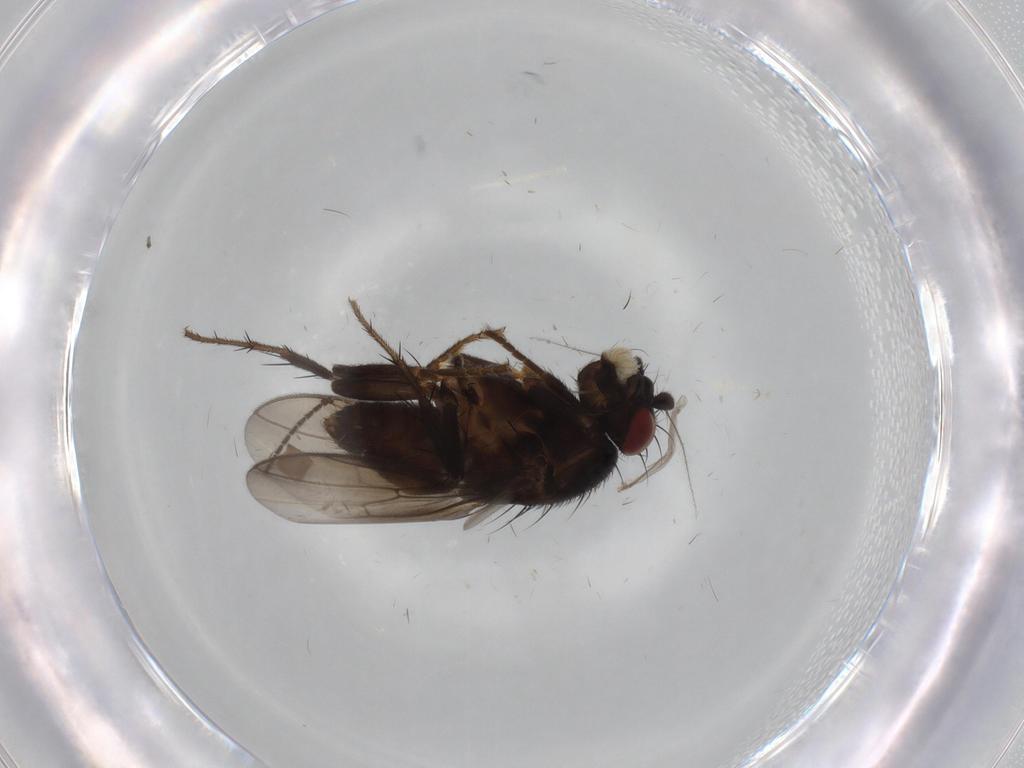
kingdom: Animalia
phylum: Arthropoda
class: Insecta
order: Diptera
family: Sphaeroceridae
